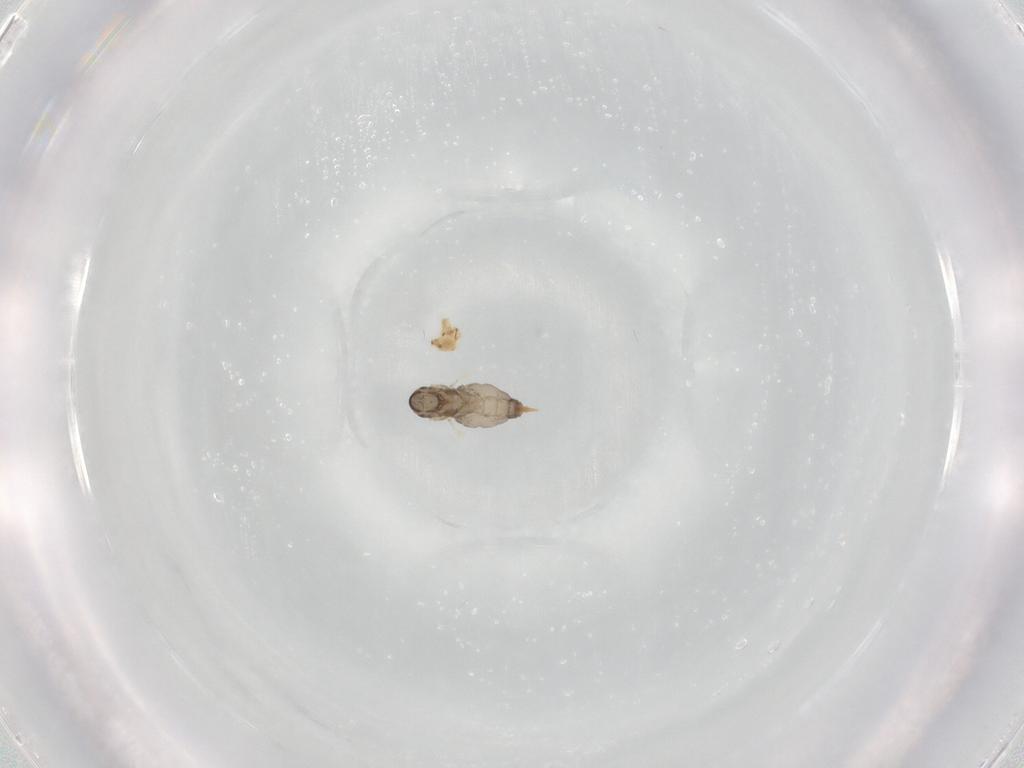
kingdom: Animalia
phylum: Arthropoda
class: Insecta
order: Diptera
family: Cecidomyiidae
